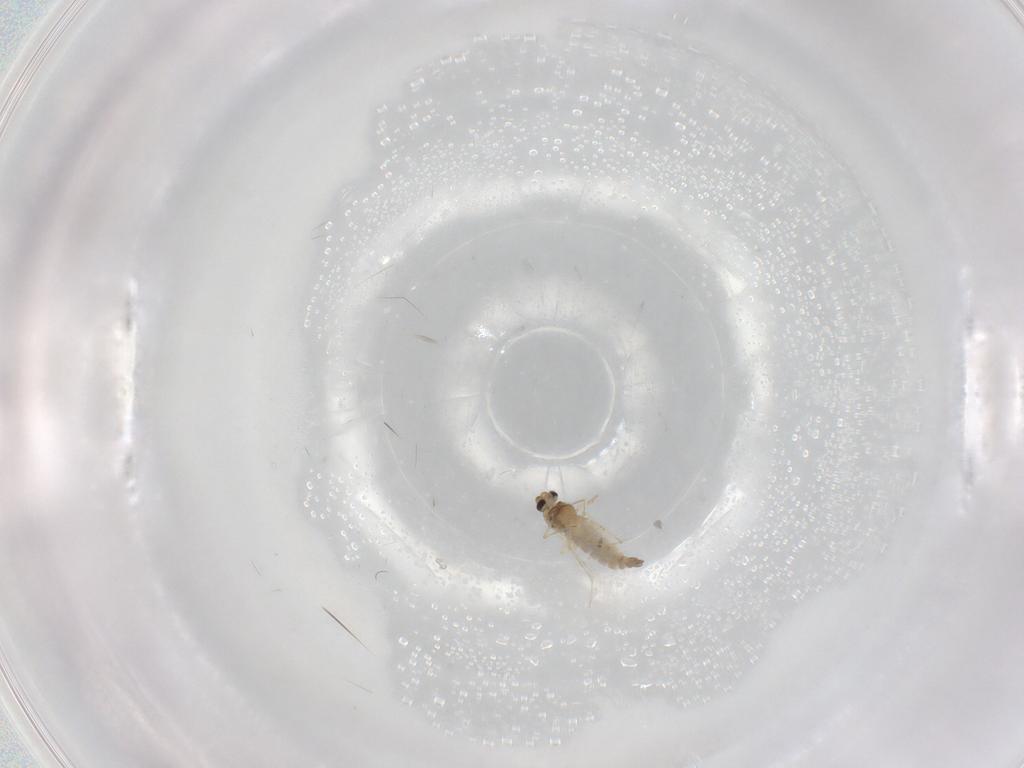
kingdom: Animalia
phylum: Arthropoda
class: Insecta
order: Diptera
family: Chironomidae
